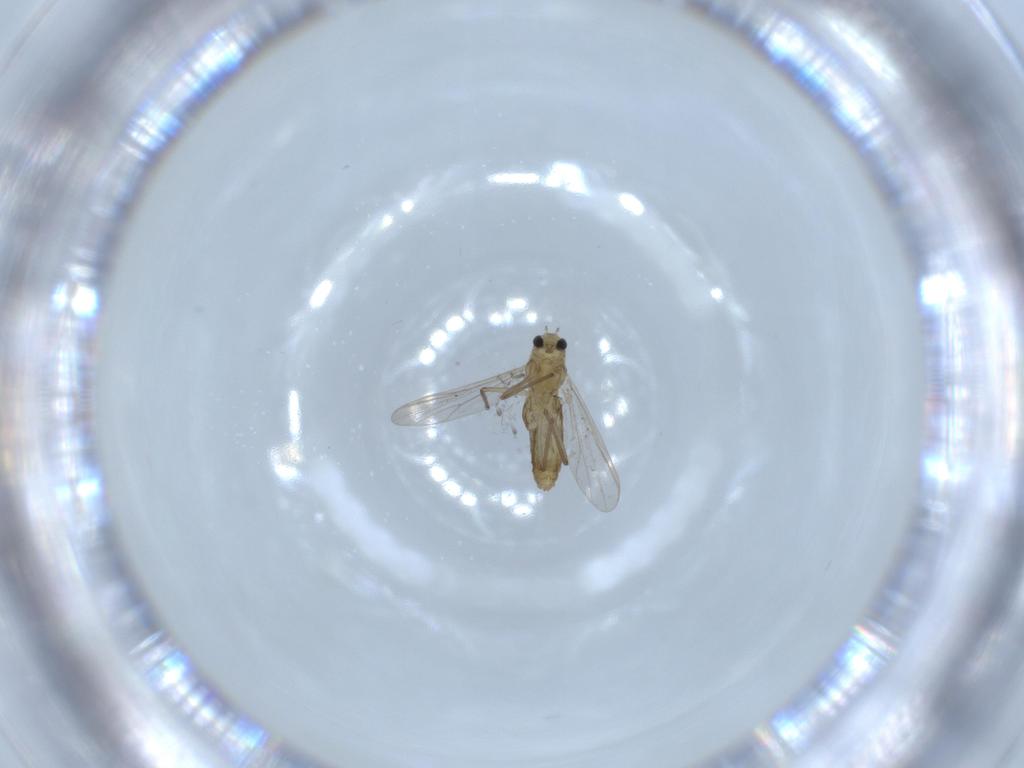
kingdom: Animalia
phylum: Arthropoda
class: Insecta
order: Diptera
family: Chironomidae
